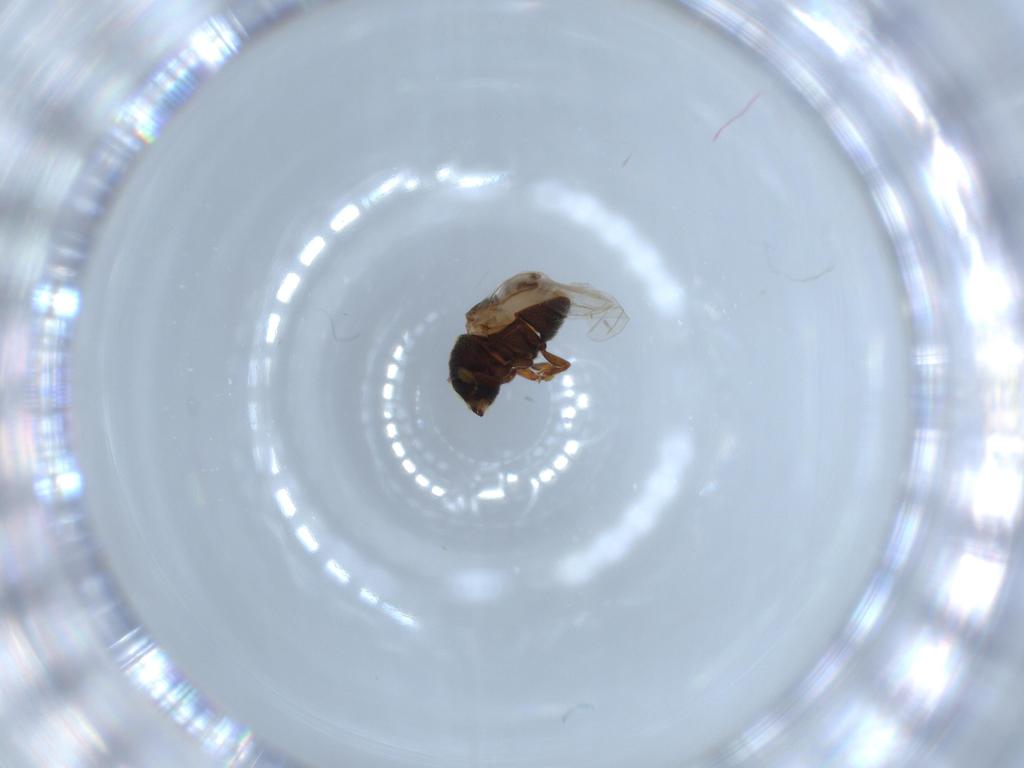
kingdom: Animalia
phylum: Arthropoda
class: Insecta
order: Coleoptera
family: Cleridae
